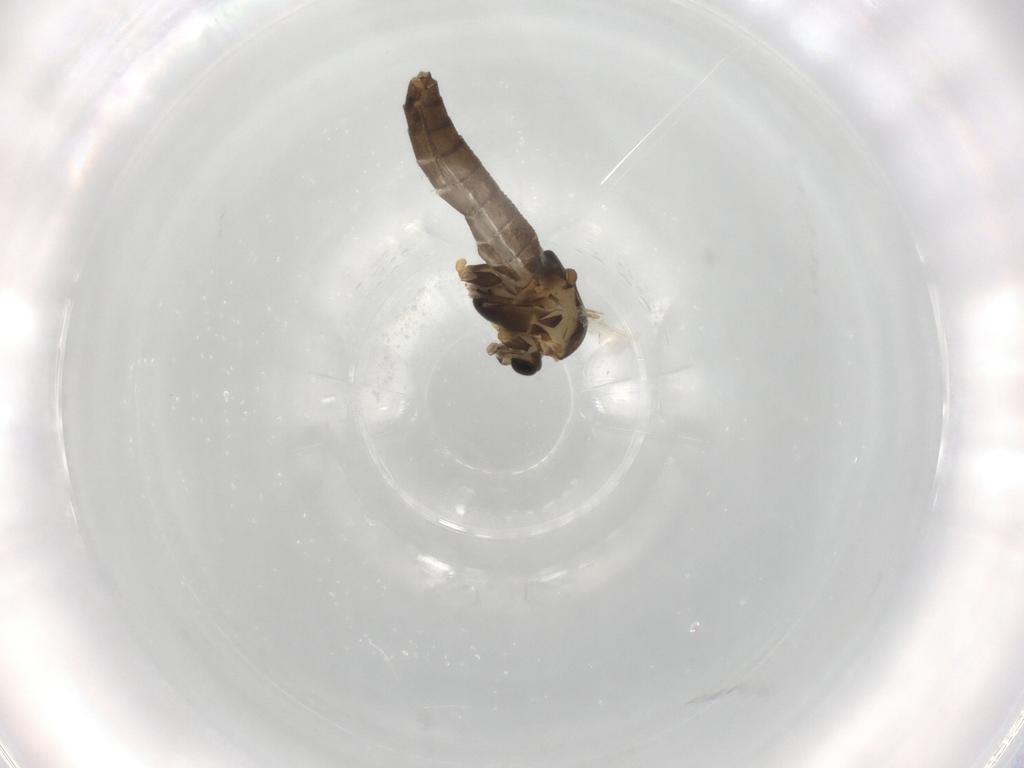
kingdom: Animalia
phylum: Arthropoda
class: Insecta
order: Diptera
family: Chironomidae
